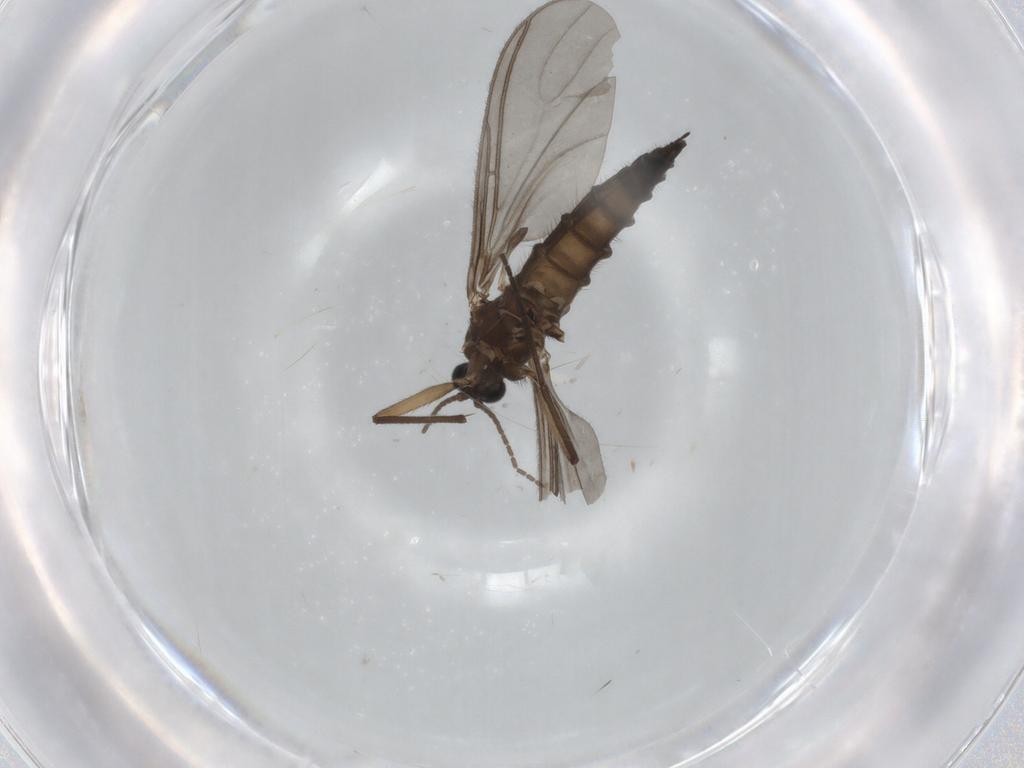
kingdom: Animalia
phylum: Arthropoda
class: Insecta
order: Diptera
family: Sciaridae
